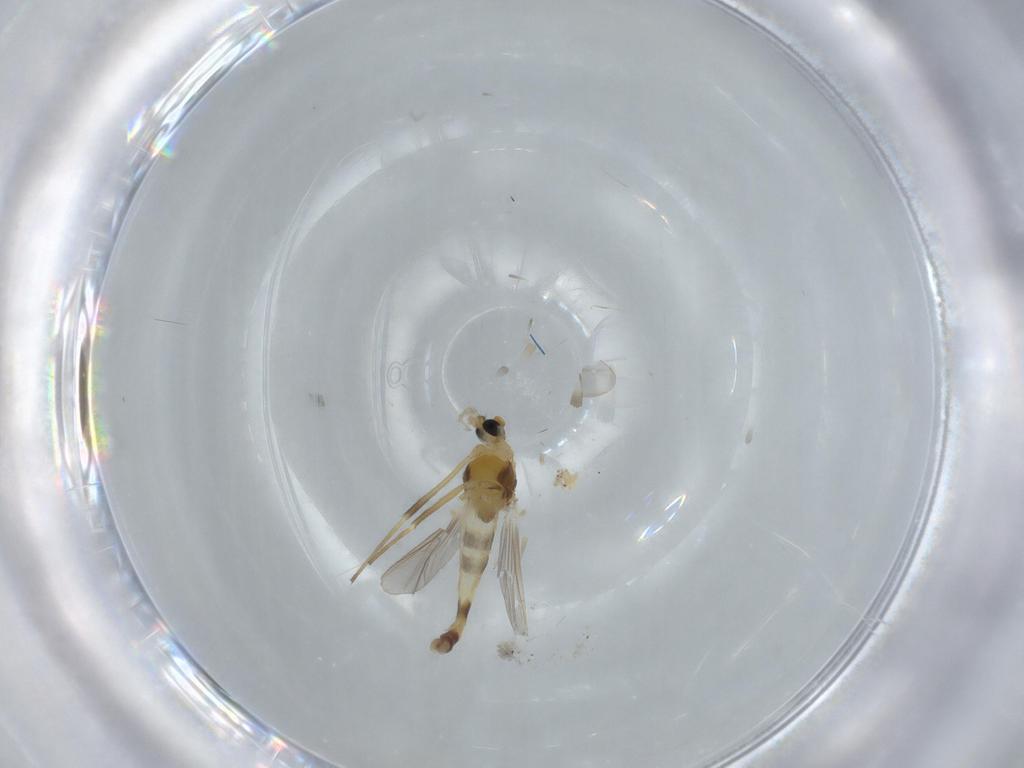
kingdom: Animalia
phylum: Arthropoda
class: Insecta
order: Diptera
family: Chironomidae
